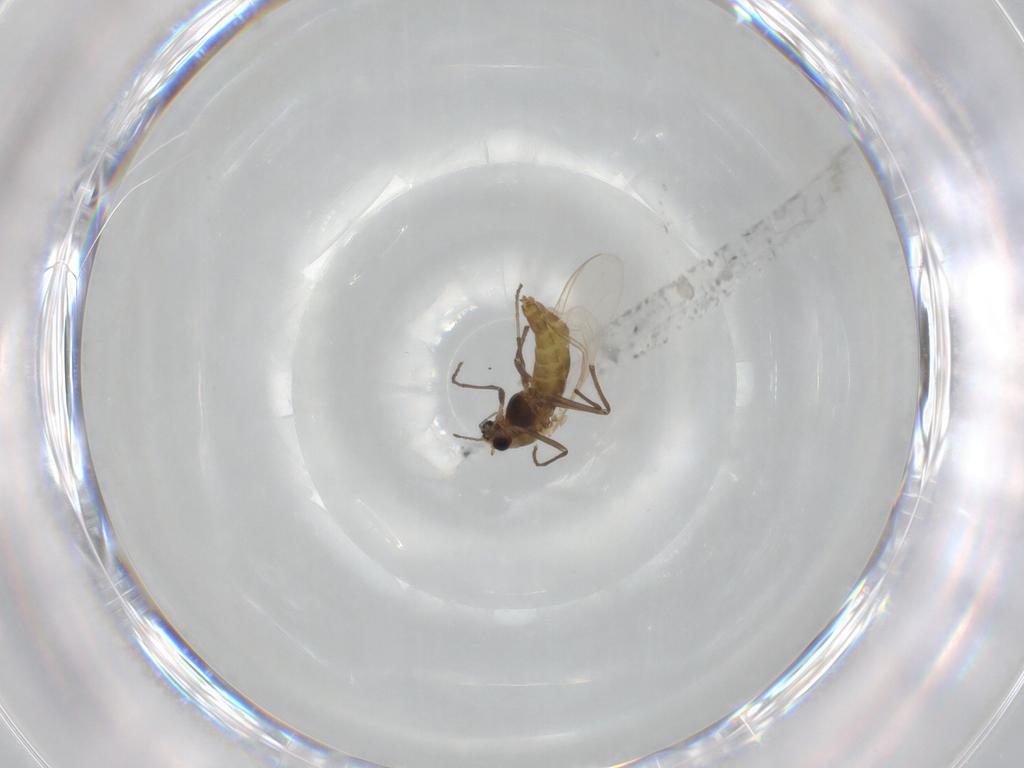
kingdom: Animalia
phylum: Arthropoda
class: Insecta
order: Diptera
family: Chironomidae
